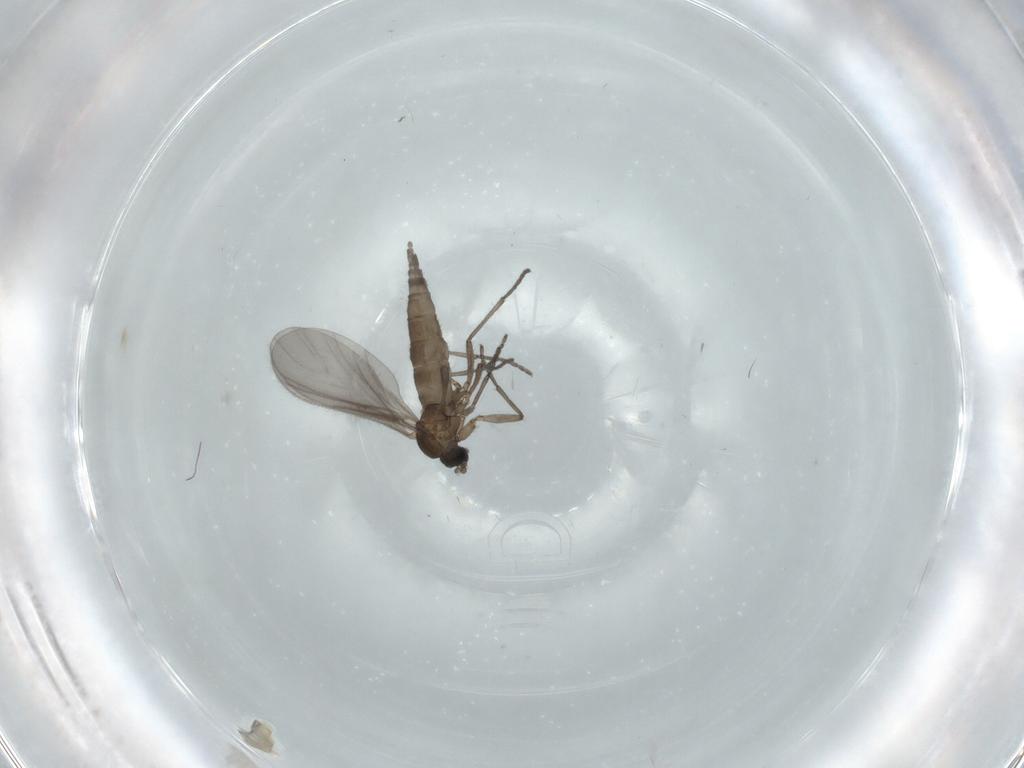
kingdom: Animalia
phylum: Arthropoda
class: Insecta
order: Diptera
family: Sciaridae
